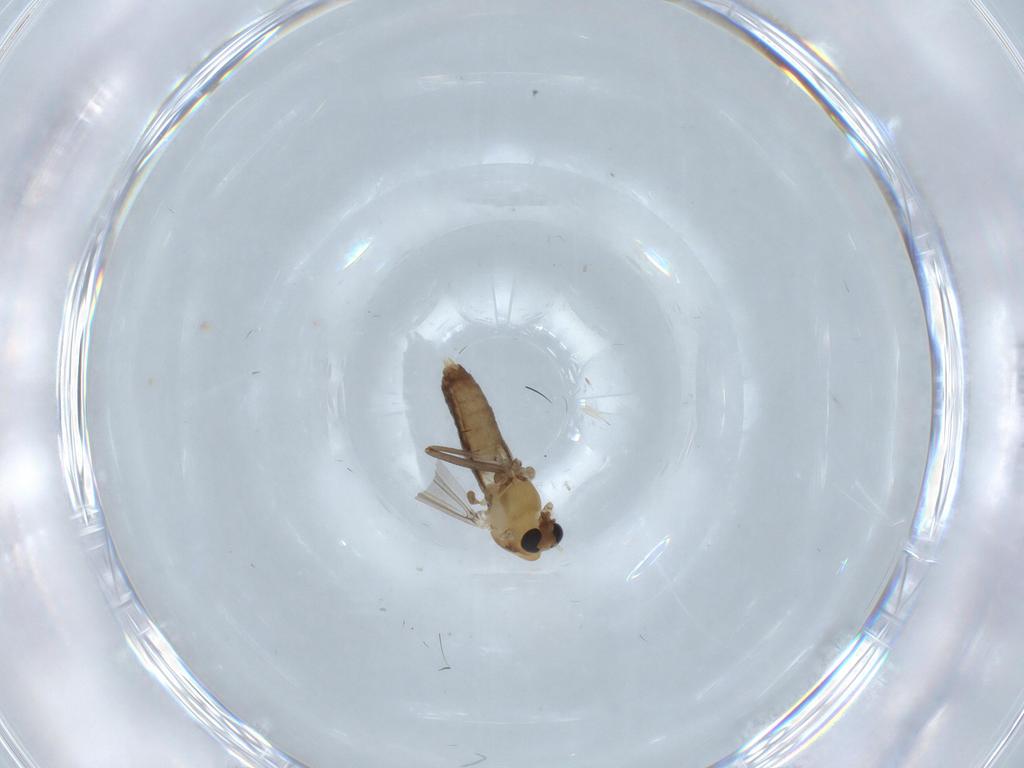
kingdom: Animalia
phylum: Arthropoda
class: Insecta
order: Diptera
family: Chironomidae
